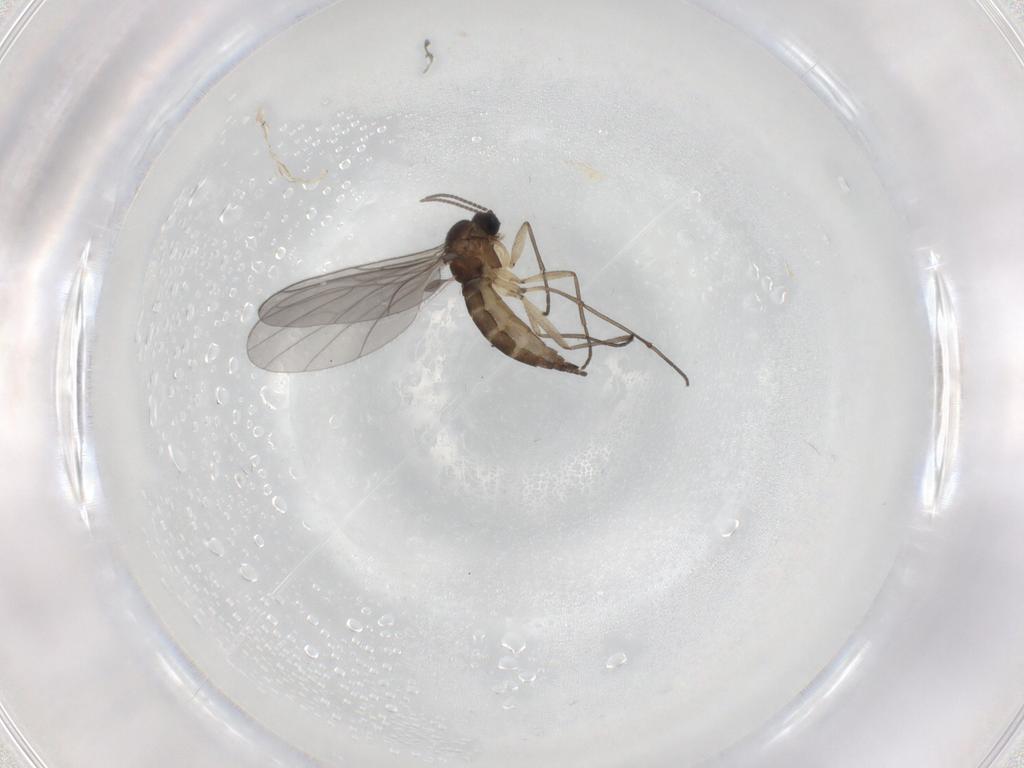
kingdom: Animalia
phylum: Arthropoda
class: Insecta
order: Diptera
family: Sciaridae
